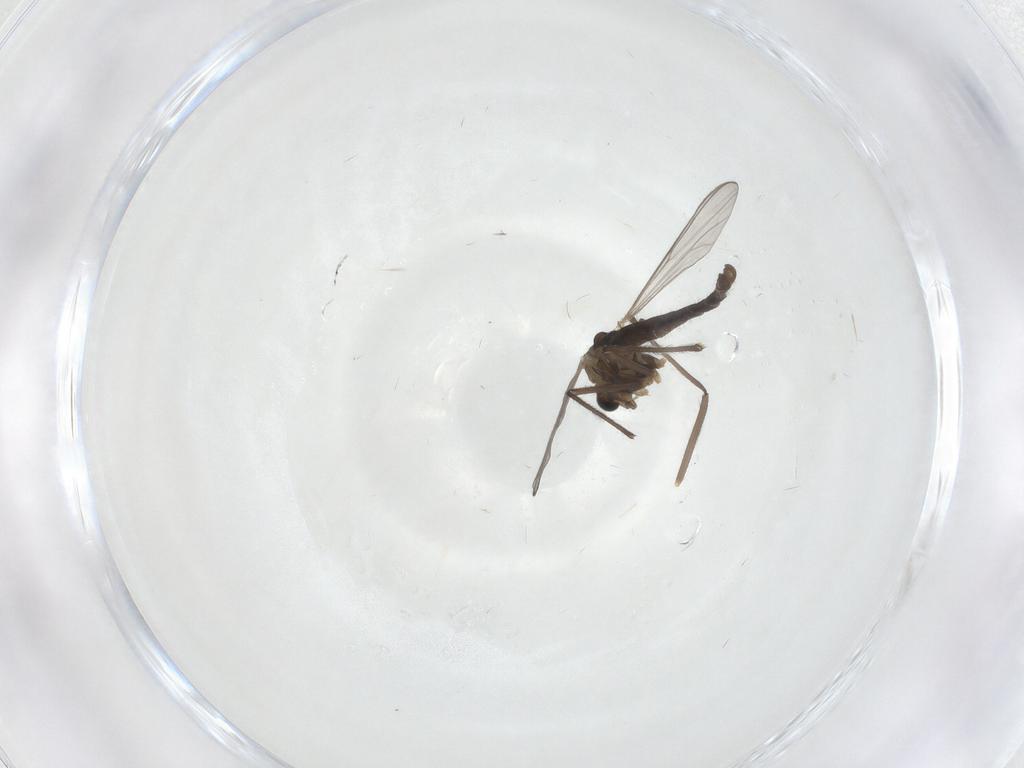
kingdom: Animalia
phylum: Arthropoda
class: Insecta
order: Diptera
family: Chironomidae
